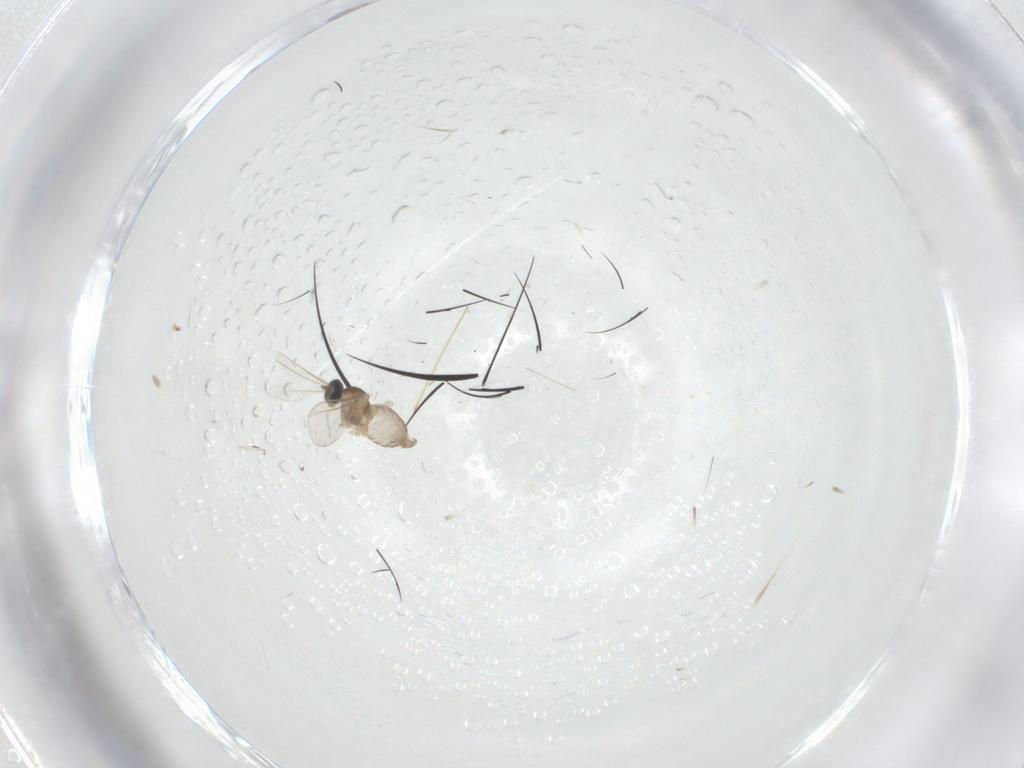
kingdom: Animalia
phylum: Arthropoda
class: Insecta
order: Diptera
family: Cecidomyiidae
